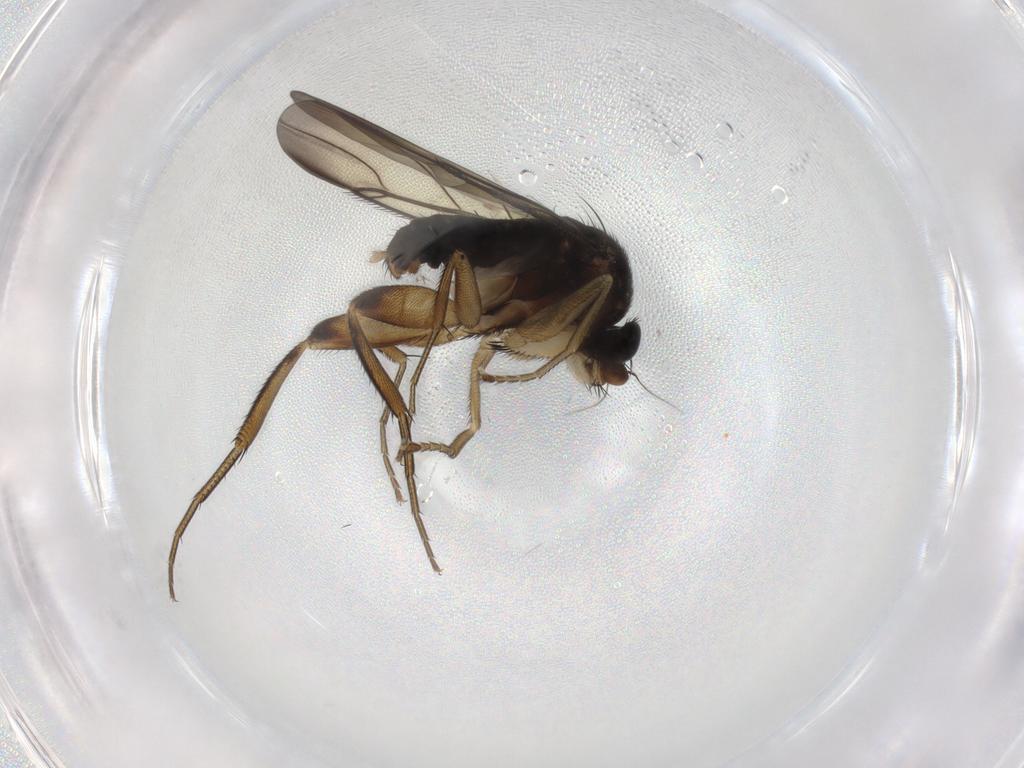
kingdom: Animalia
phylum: Arthropoda
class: Insecta
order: Diptera
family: Phoridae
